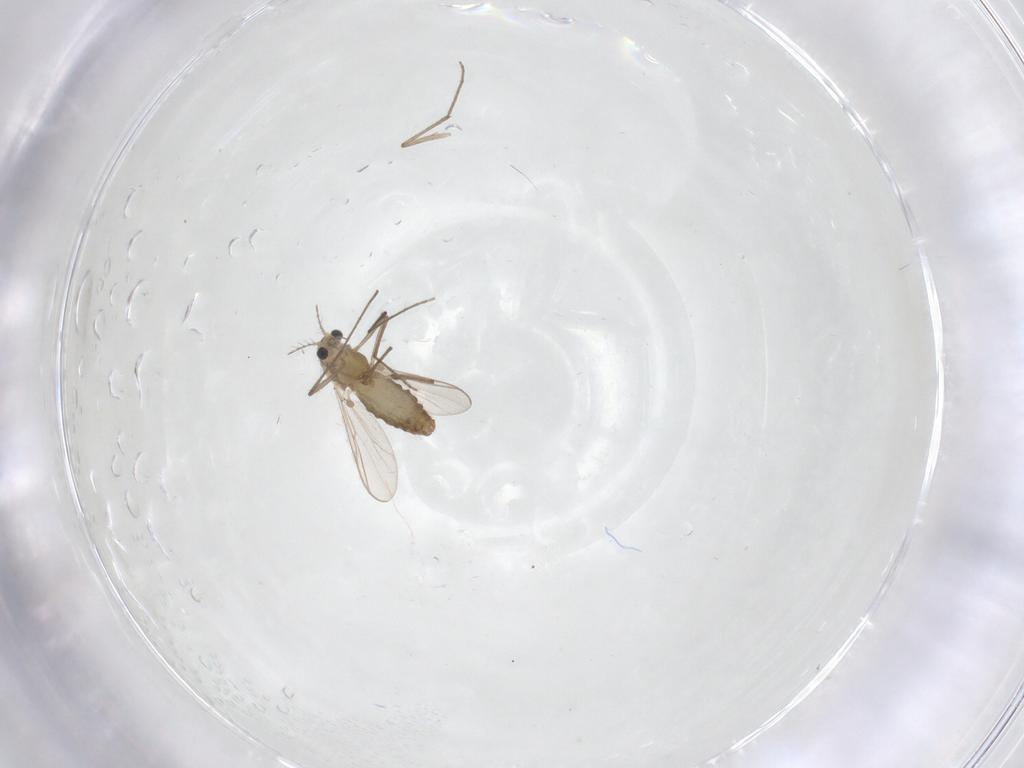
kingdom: Animalia
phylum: Arthropoda
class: Insecta
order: Diptera
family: Chironomidae
